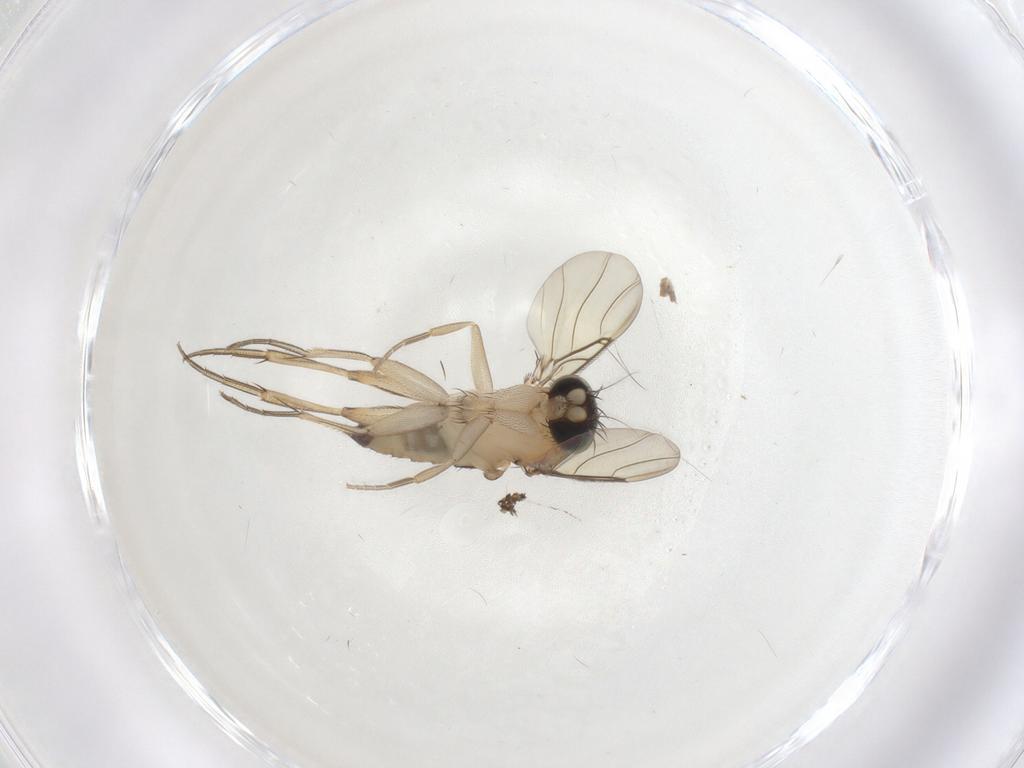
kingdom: Animalia
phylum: Arthropoda
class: Insecta
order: Diptera
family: Phoridae
